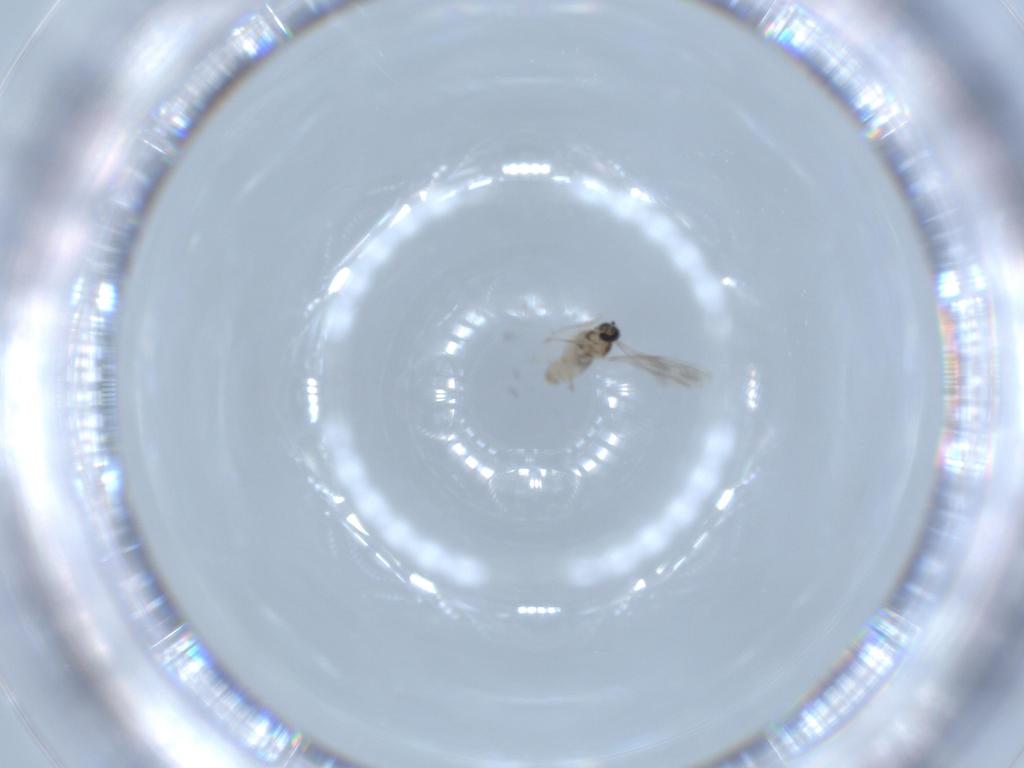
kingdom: Animalia
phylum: Arthropoda
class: Insecta
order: Diptera
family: Cecidomyiidae
